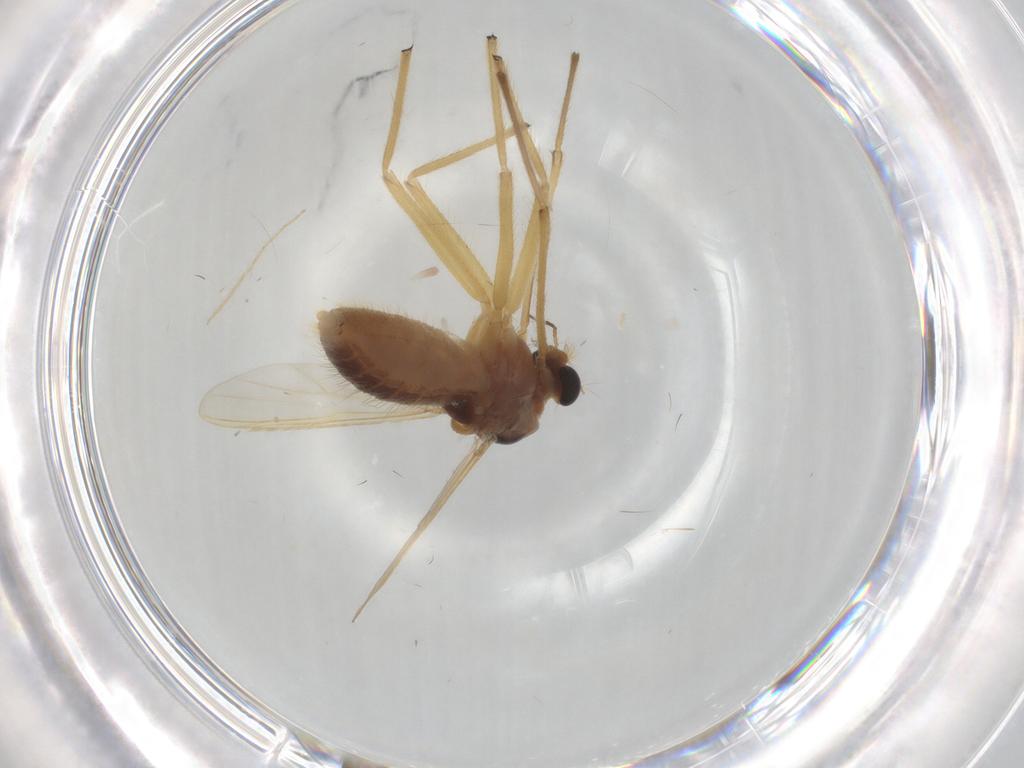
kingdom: Animalia
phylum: Arthropoda
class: Insecta
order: Diptera
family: Chironomidae
